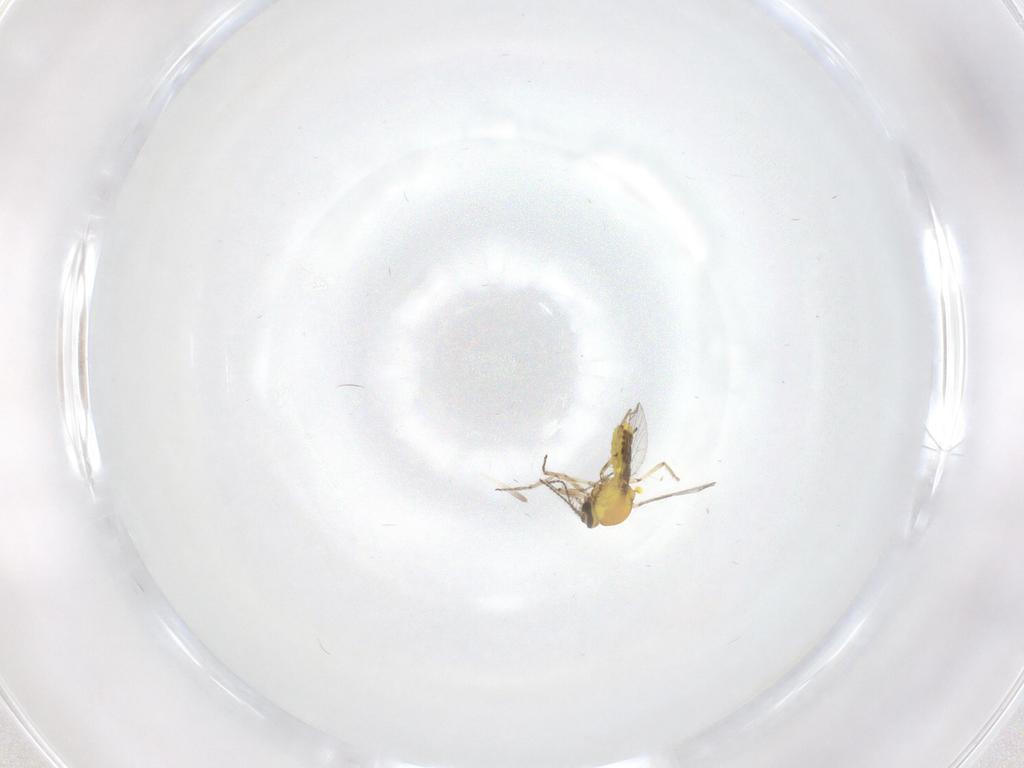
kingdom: Animalia
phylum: Arthropoda
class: Insecta
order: Diptera
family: Ceratopogonidae
